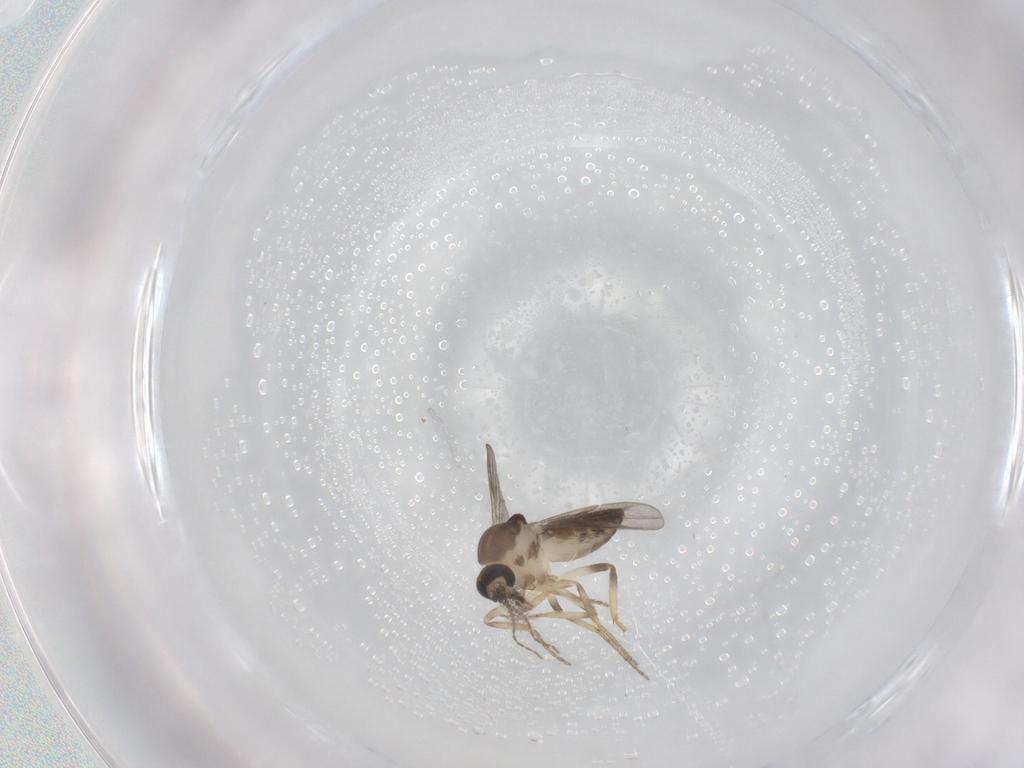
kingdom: Animalia
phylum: Arthropoda
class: Insecta
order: Diptera
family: Ceratopogonidae
